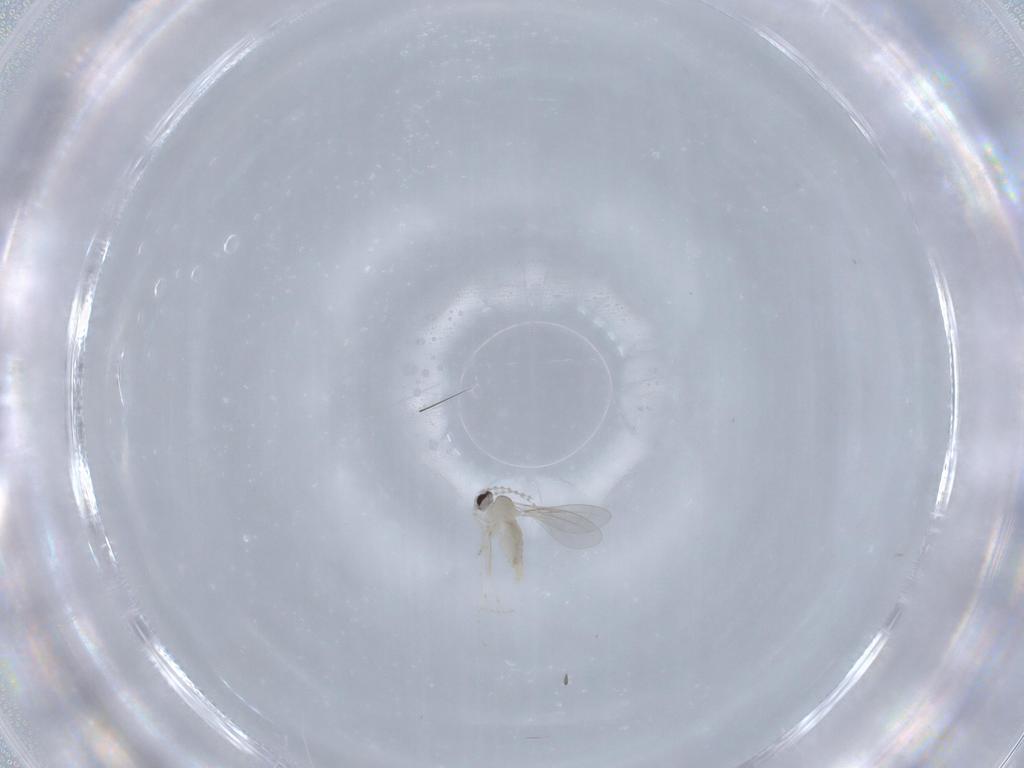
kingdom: Animalia
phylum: Arthropoda
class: Insecta
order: Diptera
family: Cecidomyiidae
